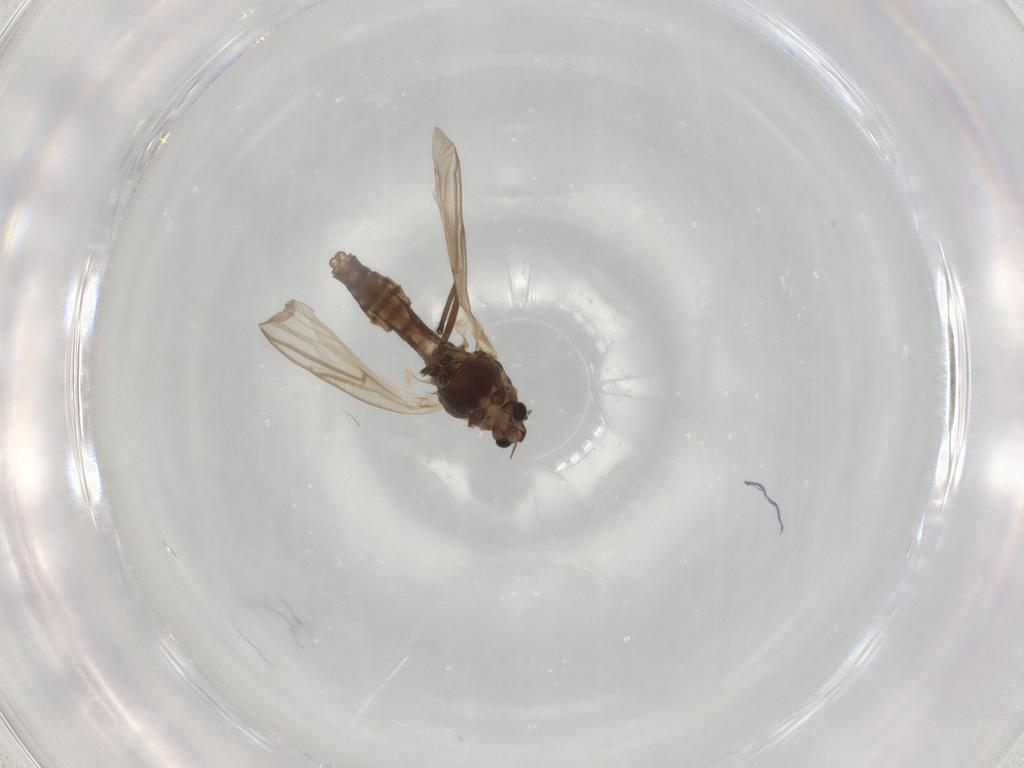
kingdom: Animalia
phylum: Arthropoda
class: Insecta
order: Diptera
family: Chironomidae
